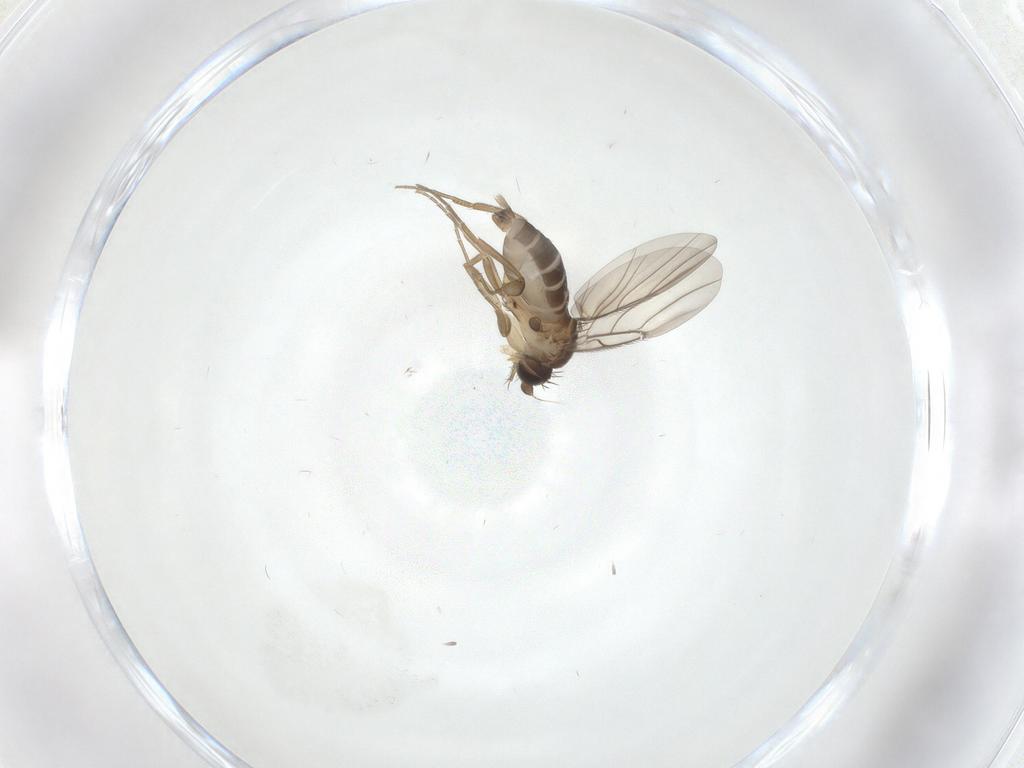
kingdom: Animalia
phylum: Arthropoda
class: Insecta
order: Diptera
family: Phoridae
